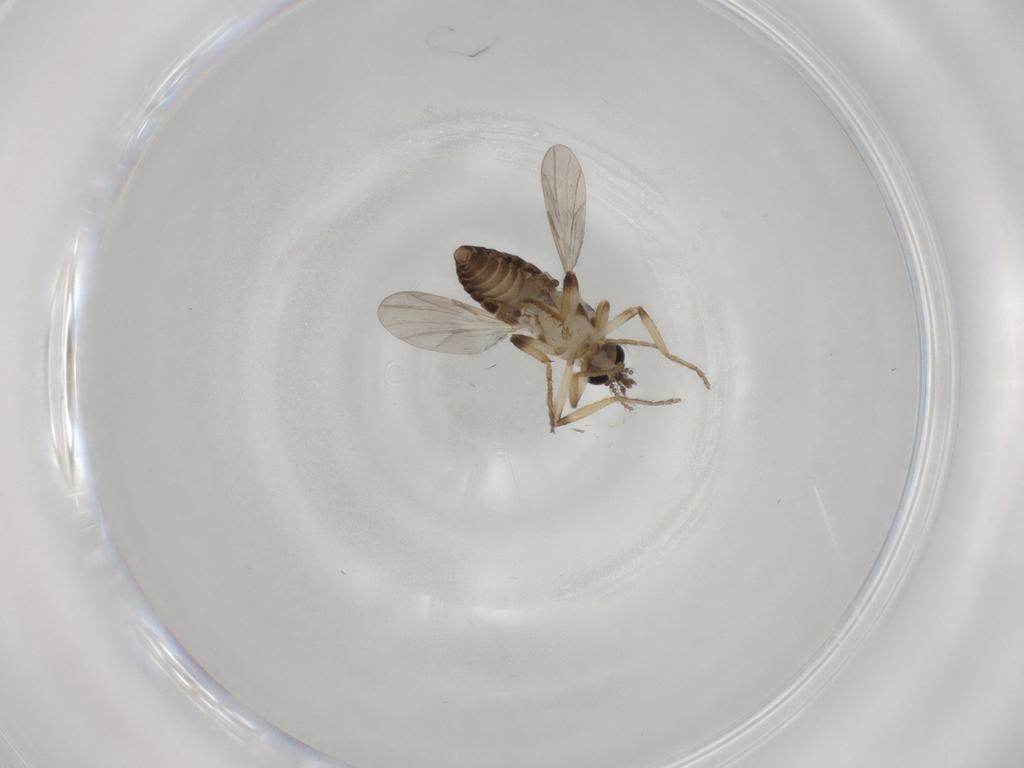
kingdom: Animalia
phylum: Arthropoda
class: Insecta
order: Diptera
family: Ceratopogonidae
